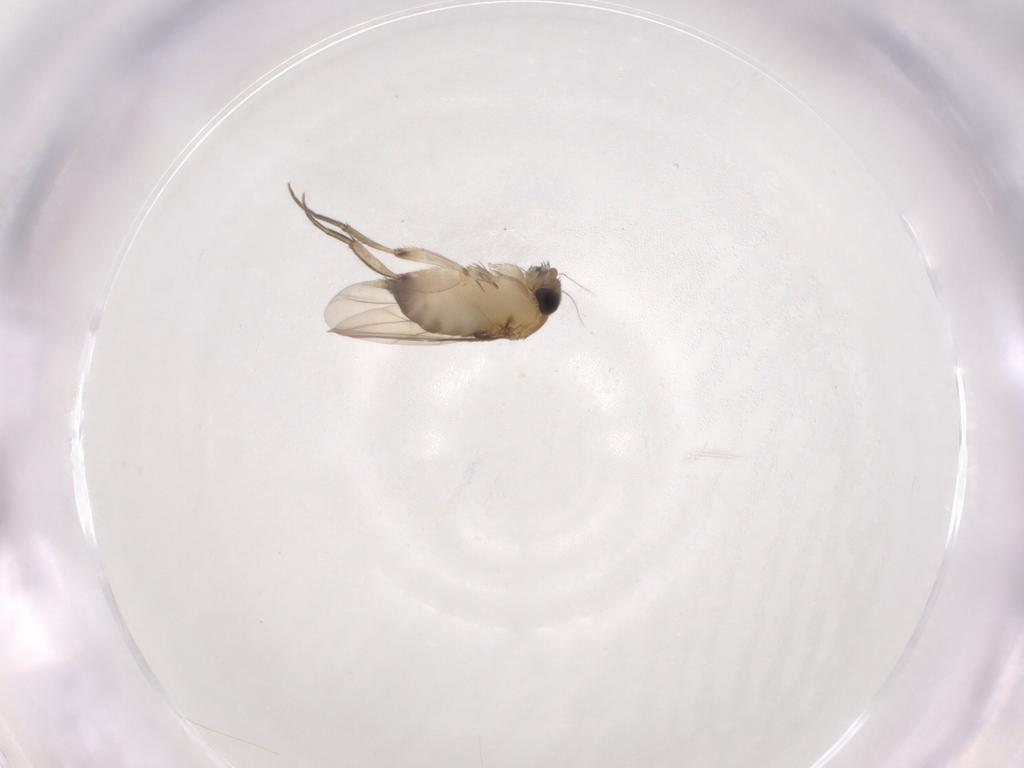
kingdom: Animalia
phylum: Arthropoda
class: Insecta
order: Diptera
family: Phoridae
